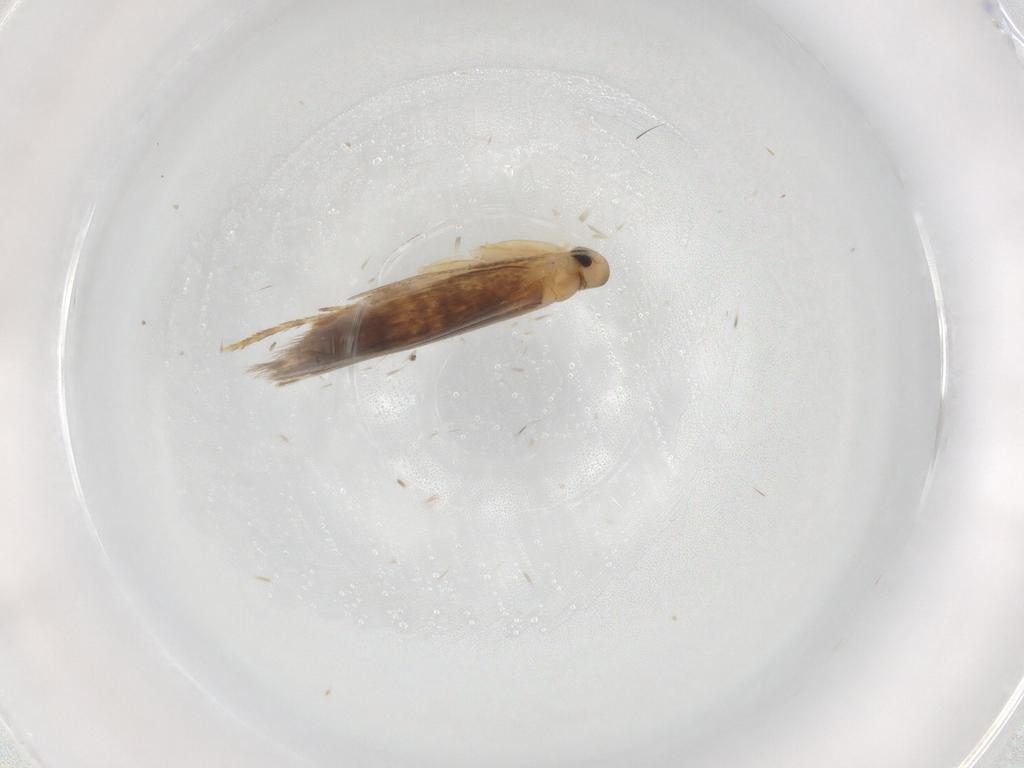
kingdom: Animalia
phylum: Arthropoda
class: Insecta
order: Lepidoptera
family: Tischeriidae
